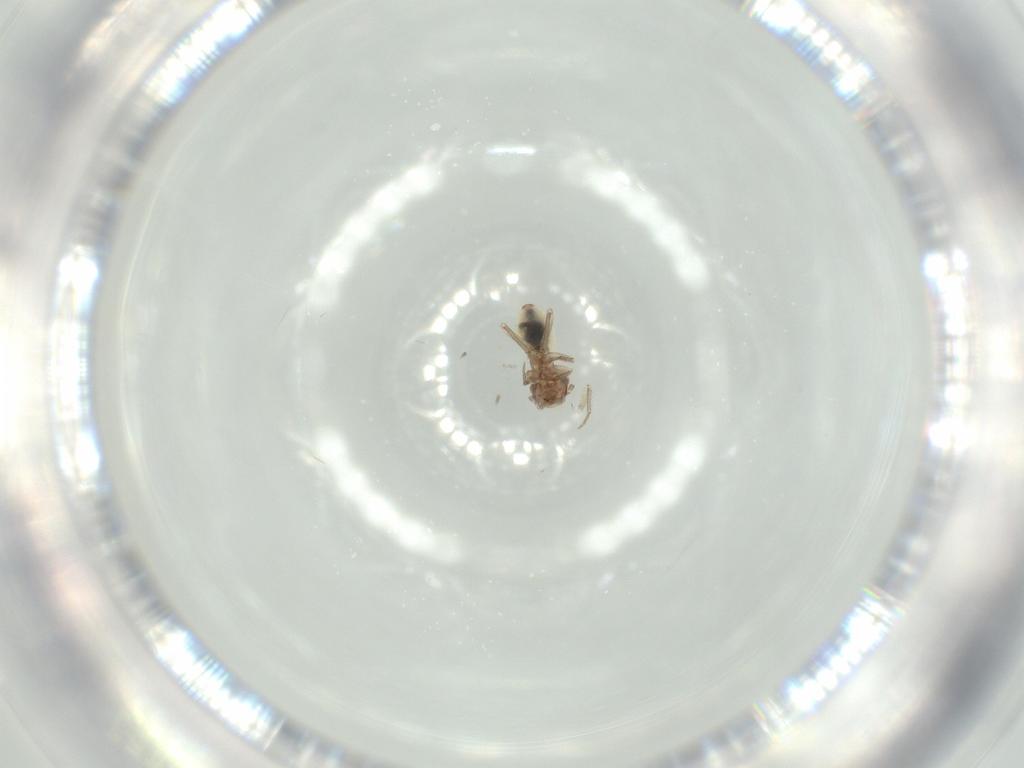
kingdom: Animalia
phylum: Arthropoda
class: Insecta
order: Psocodea
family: Lepidopsocidae
